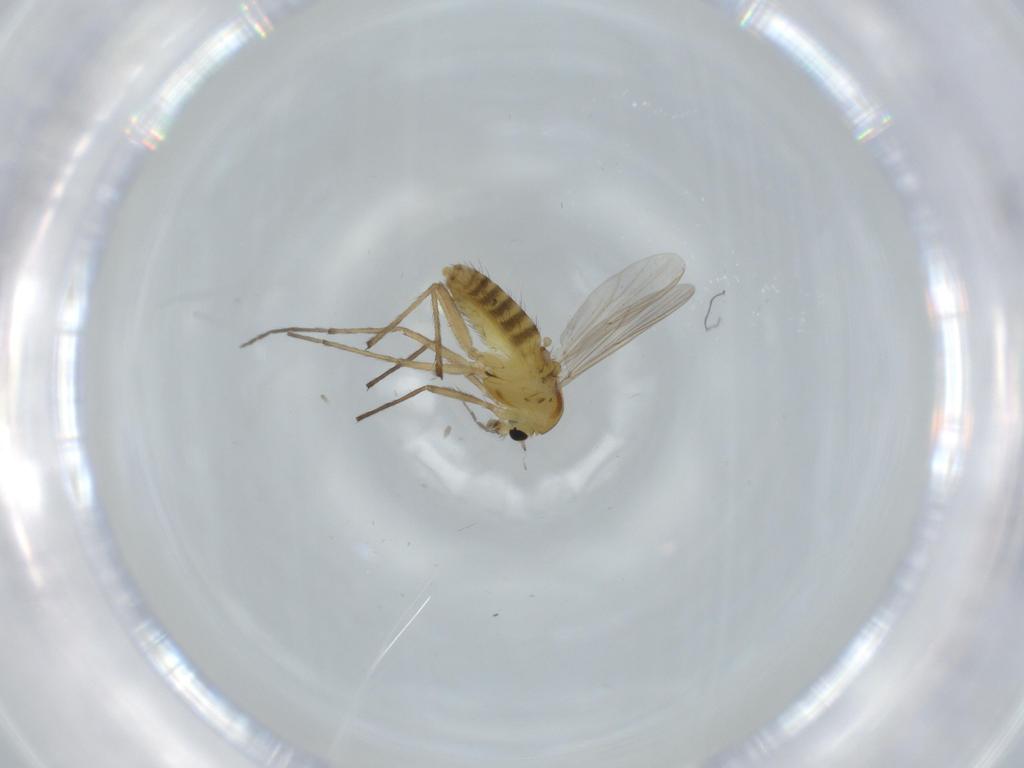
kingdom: Animalia
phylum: Arthropoda
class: Insecta
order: Diptera
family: Chironomidae
